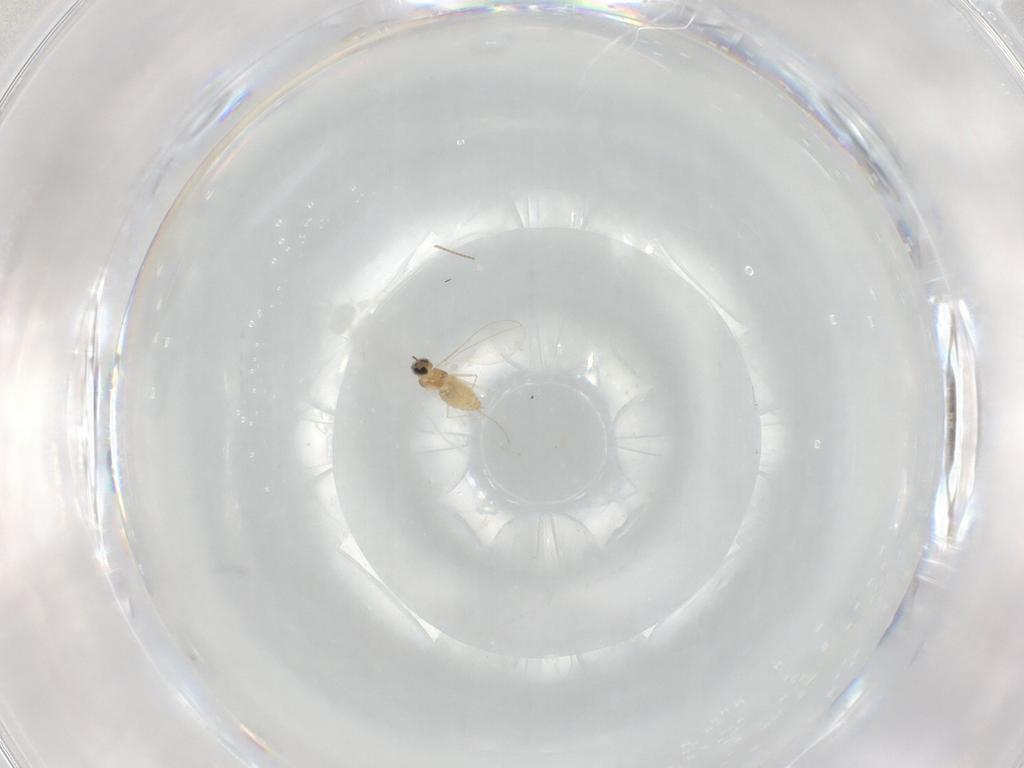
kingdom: Animalia
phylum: Arthropoda
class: Insecta
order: Diptera
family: Cecidomyiidae
